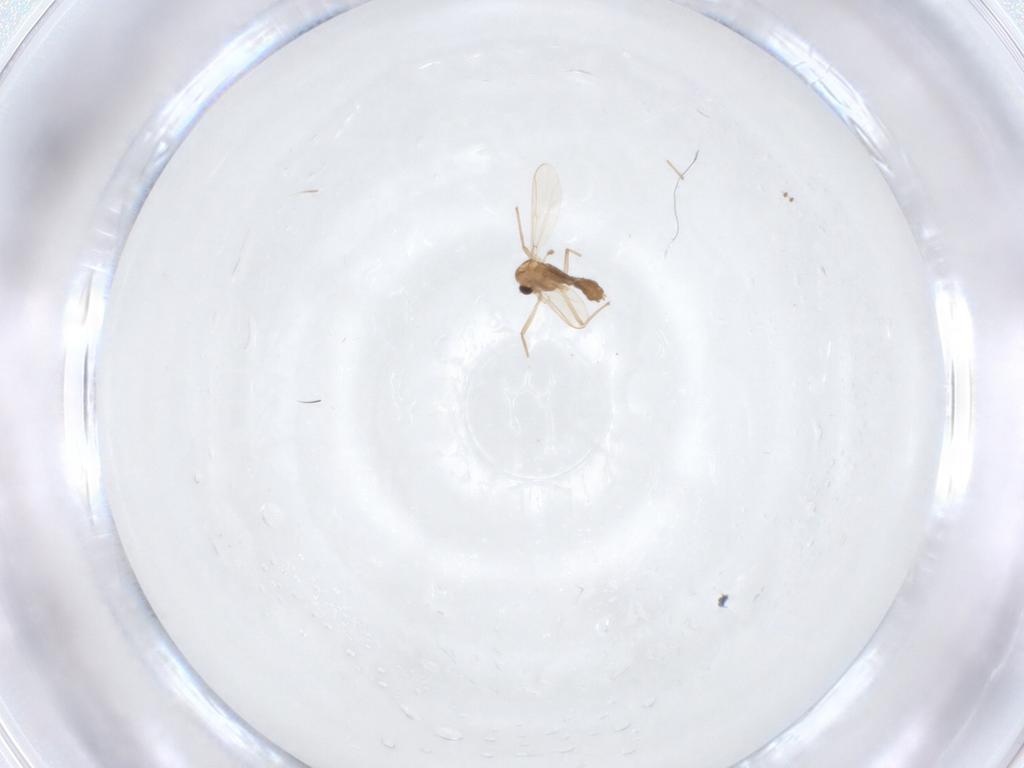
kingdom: Animalia
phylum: Arthropoda
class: Insecta
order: Diptera
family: Chironomidae
